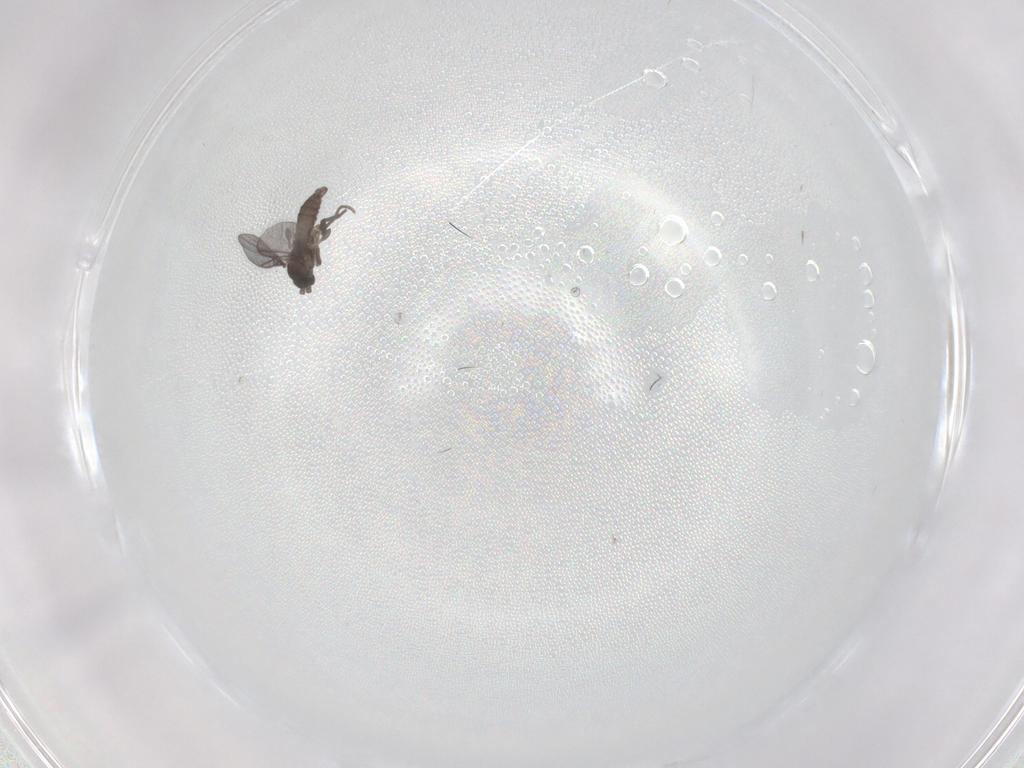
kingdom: Animalia
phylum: Arthropoda
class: Insecta
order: Diptera
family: Sciaridae
